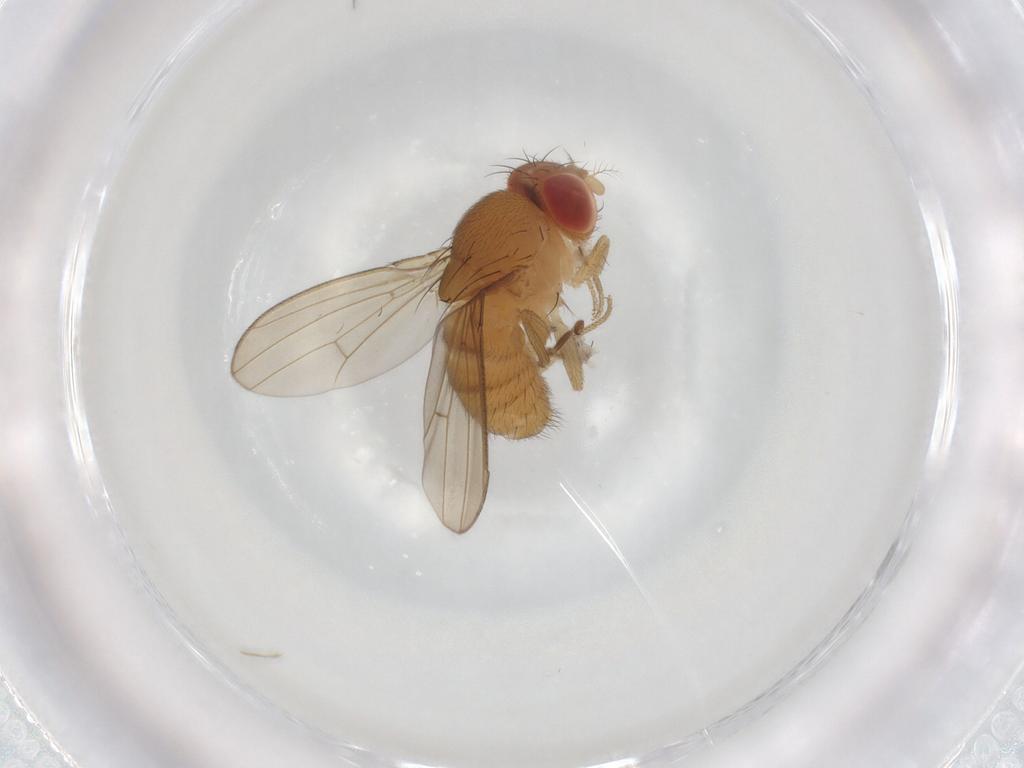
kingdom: Animalia
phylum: Arthropoda
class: Insecta
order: Diptera
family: Drosophilidae
